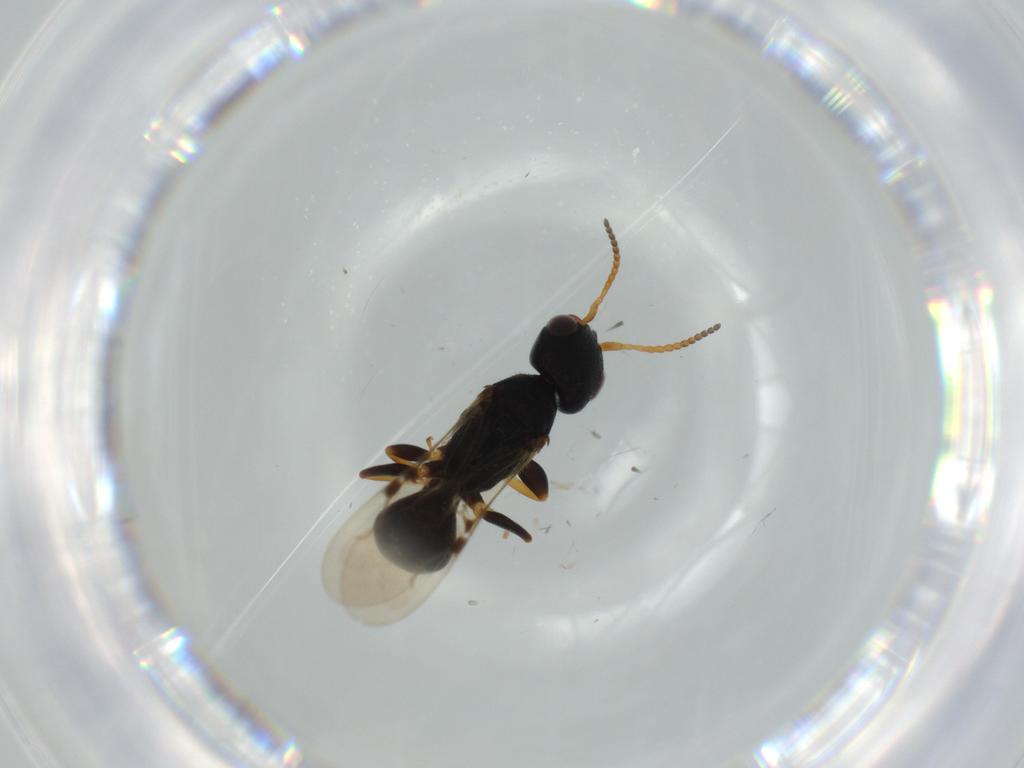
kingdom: Animalia
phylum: Arthropoda
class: Insecta
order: Hymenoptera
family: Bethylidae
